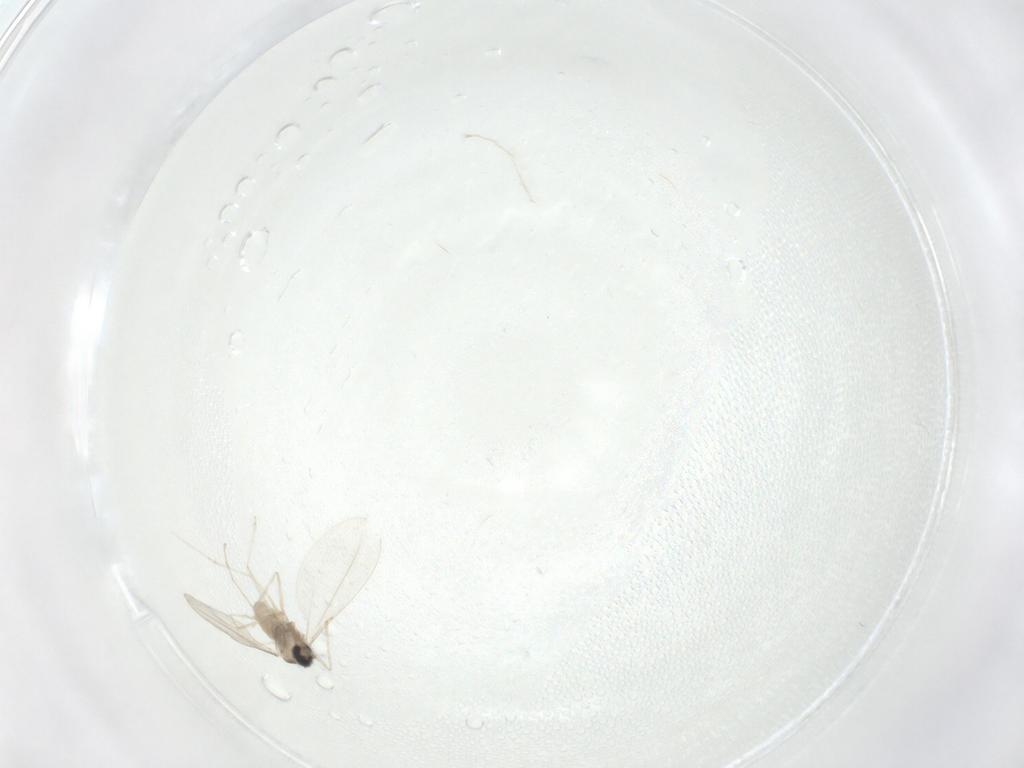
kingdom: Animalia
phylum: Arthropoda
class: Insecta
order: Diptera
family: Cecidomyiidae
